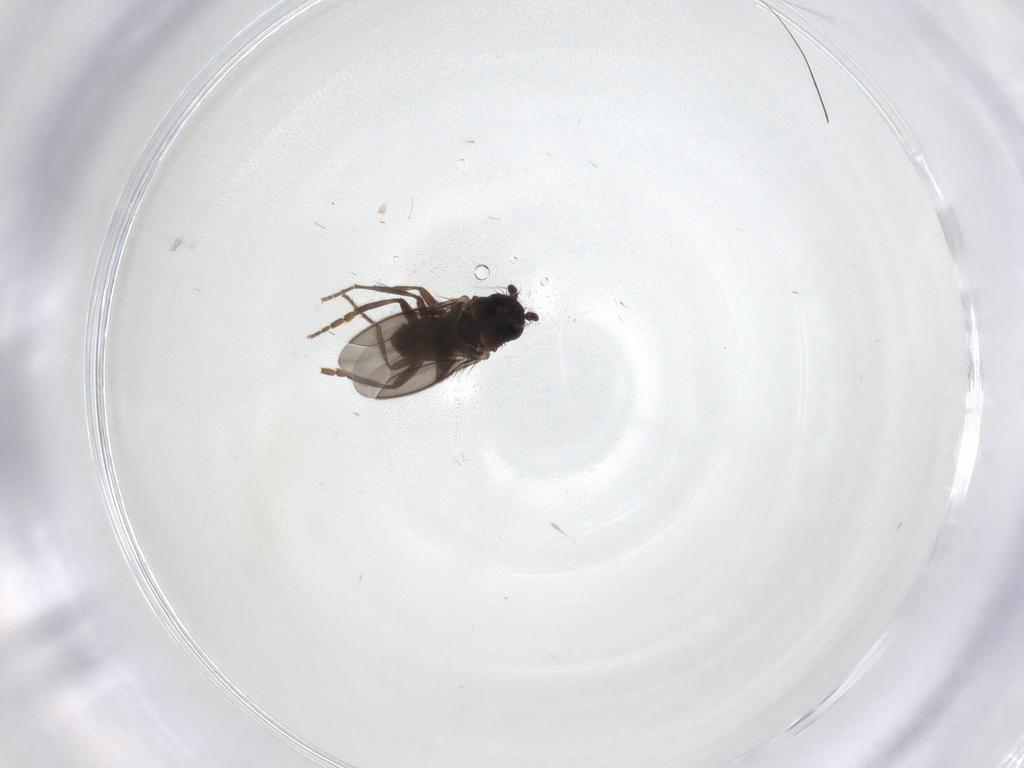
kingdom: Animalia
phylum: Arthropoda
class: Insecta
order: Diptera
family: Sphaeroceridae
